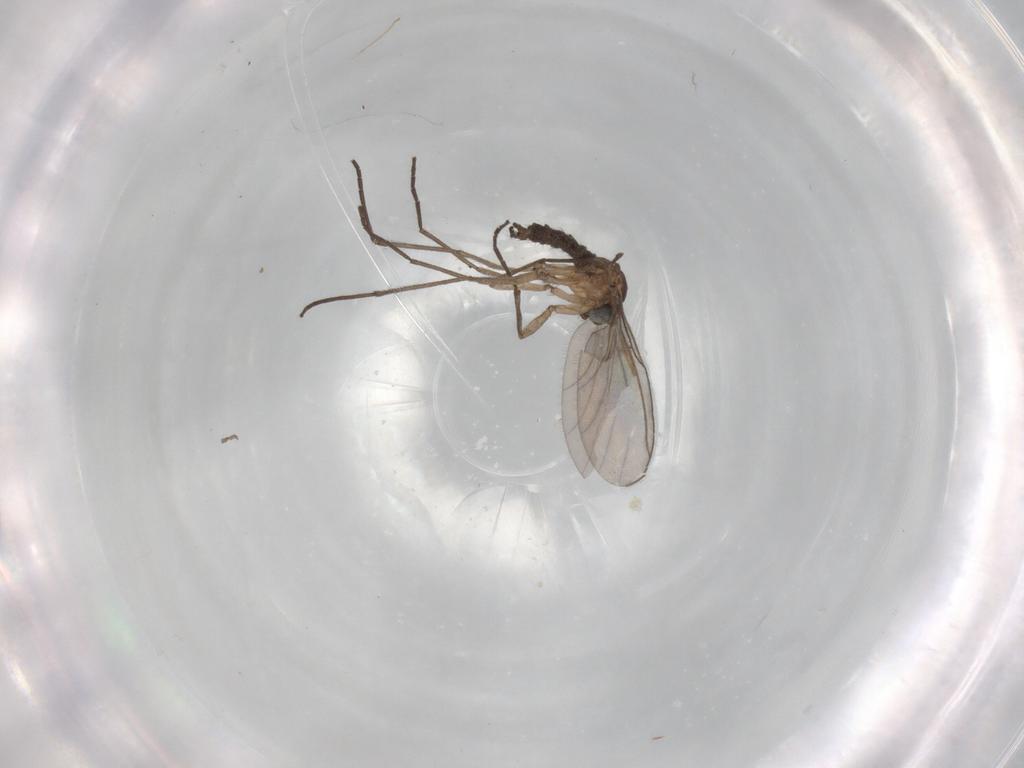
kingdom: Animalia
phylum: Arthropoda
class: Insecta
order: Diptera
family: Sciaridae
